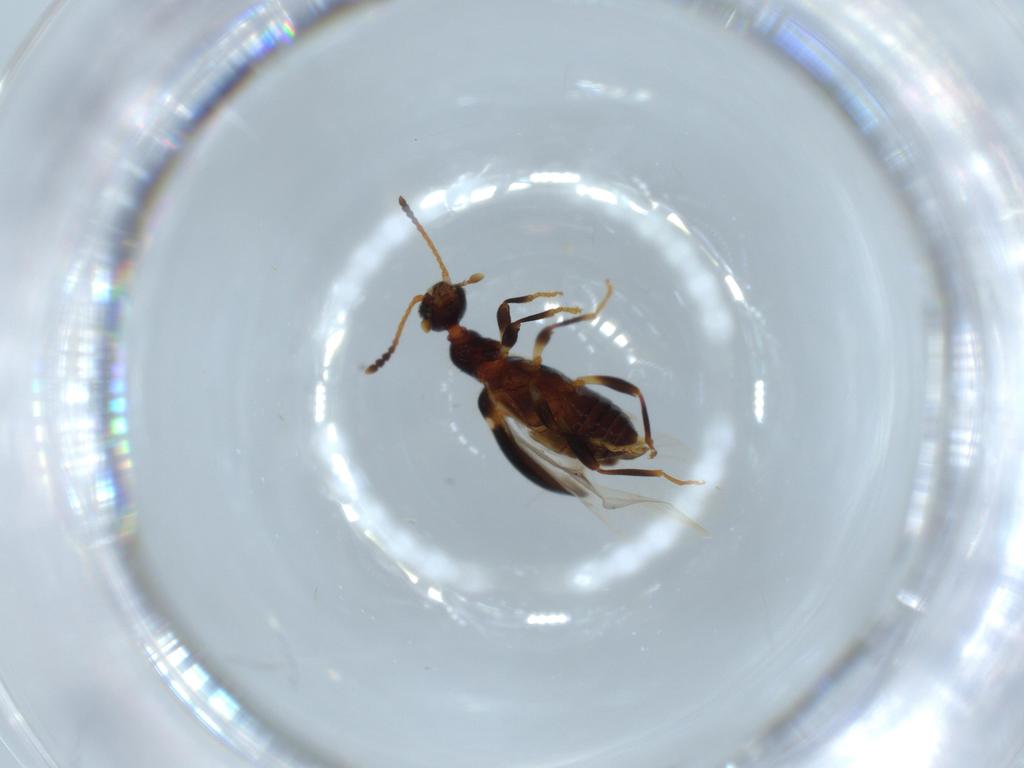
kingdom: Animalia
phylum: Arthropoda
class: Insecta
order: Coleoptera
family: Anthicidae
